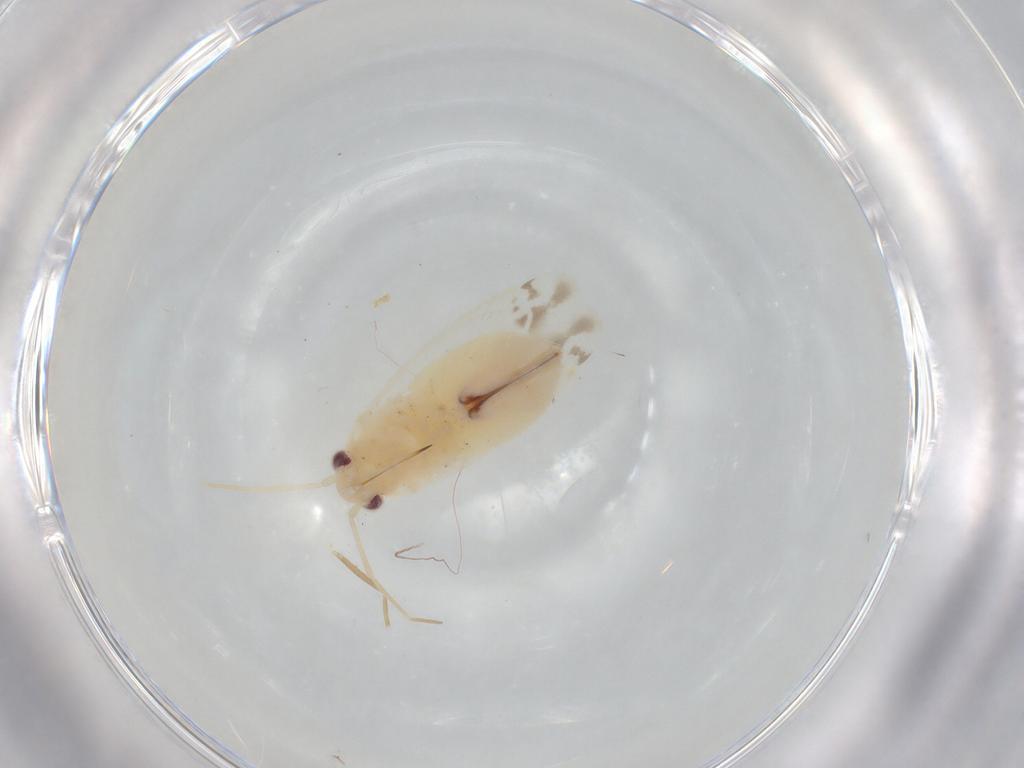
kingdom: Animalia
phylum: Arthropoda
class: Insecta
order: Hemiptera
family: Miridae
